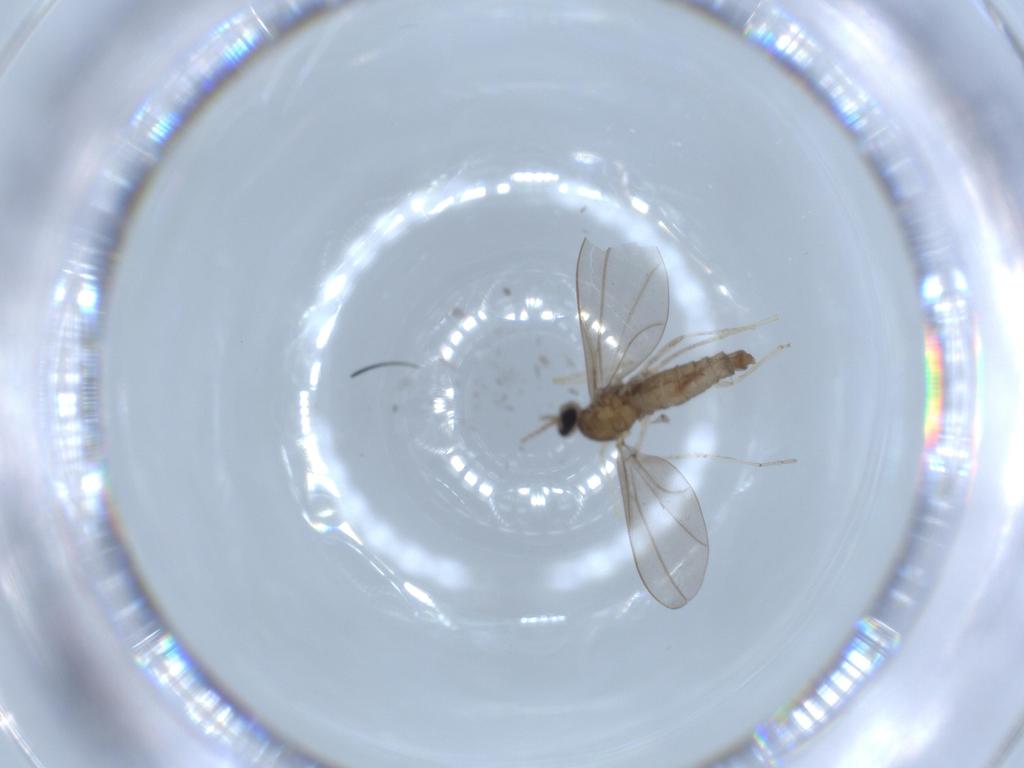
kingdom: Animalia
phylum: Arthropoda
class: Insecta
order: Diptera
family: Cecidomyiidae
